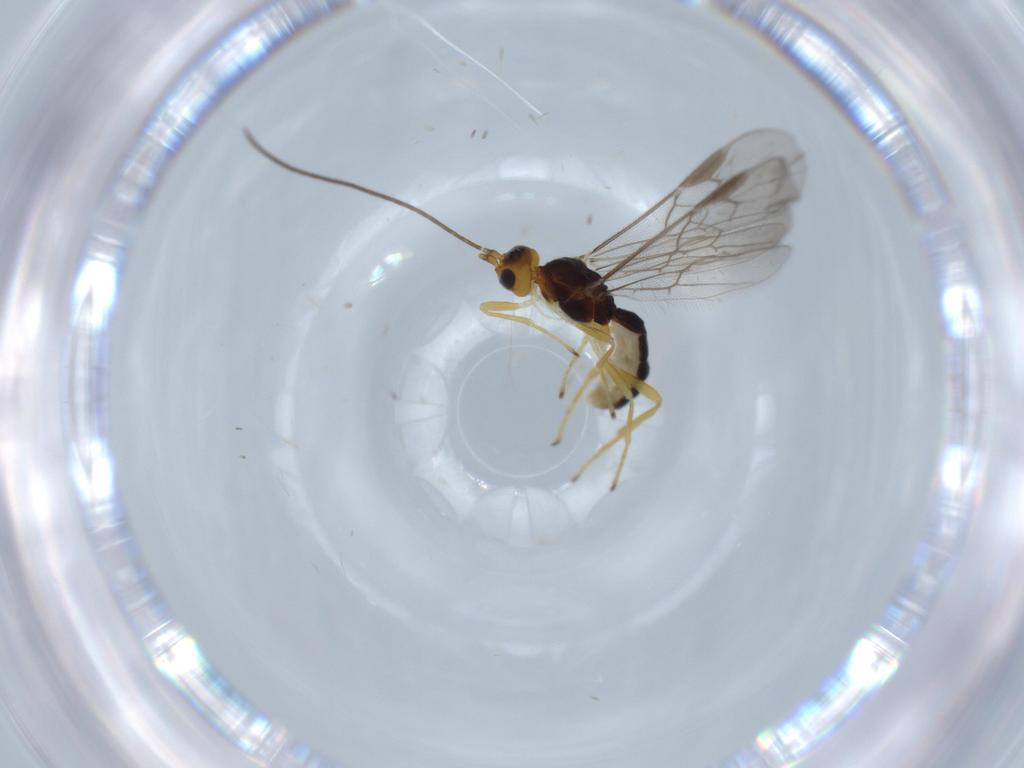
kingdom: Animalia
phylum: Arthropoda
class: Insecta
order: Hymenoptera
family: Braconidae
